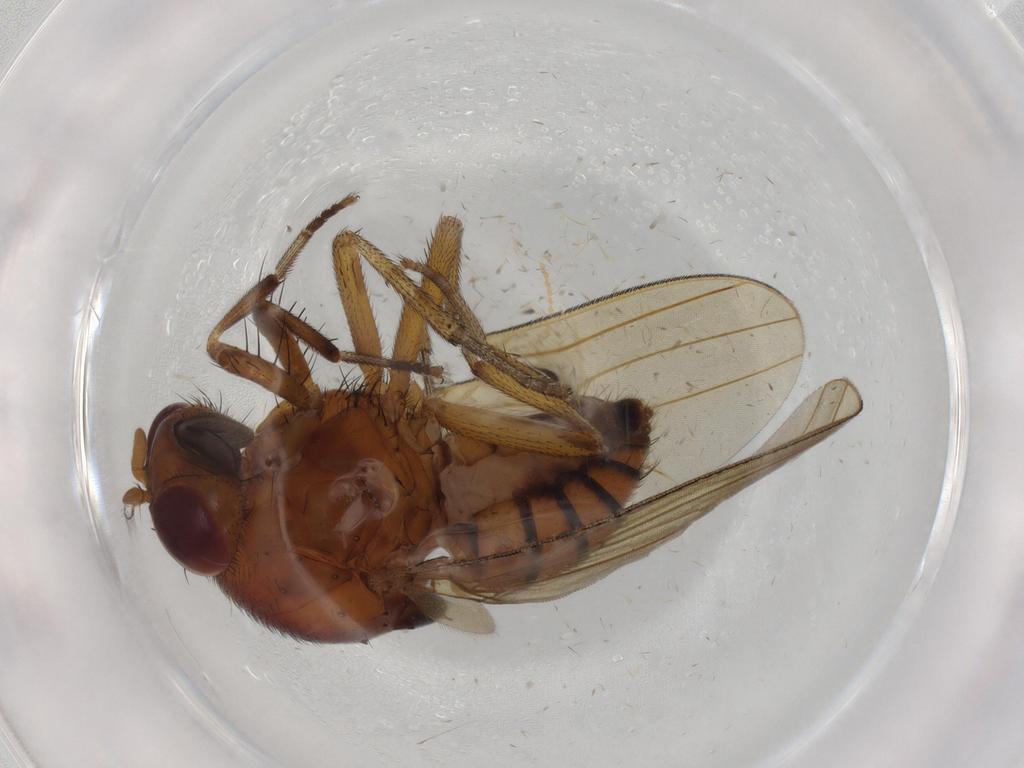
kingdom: Animalia
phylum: Arthropoda
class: Insecta
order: Diptera
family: Cecidomyiidae
